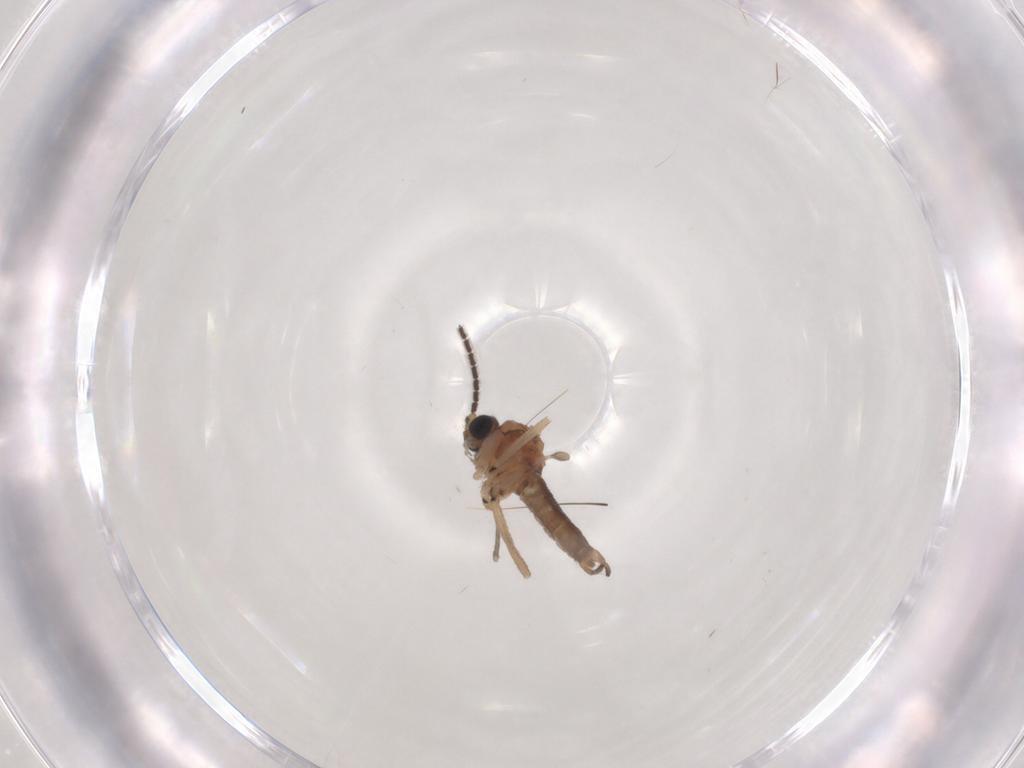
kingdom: Animalia
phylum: Arthropoda
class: Insecta
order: Diptera
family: Sciaridae
